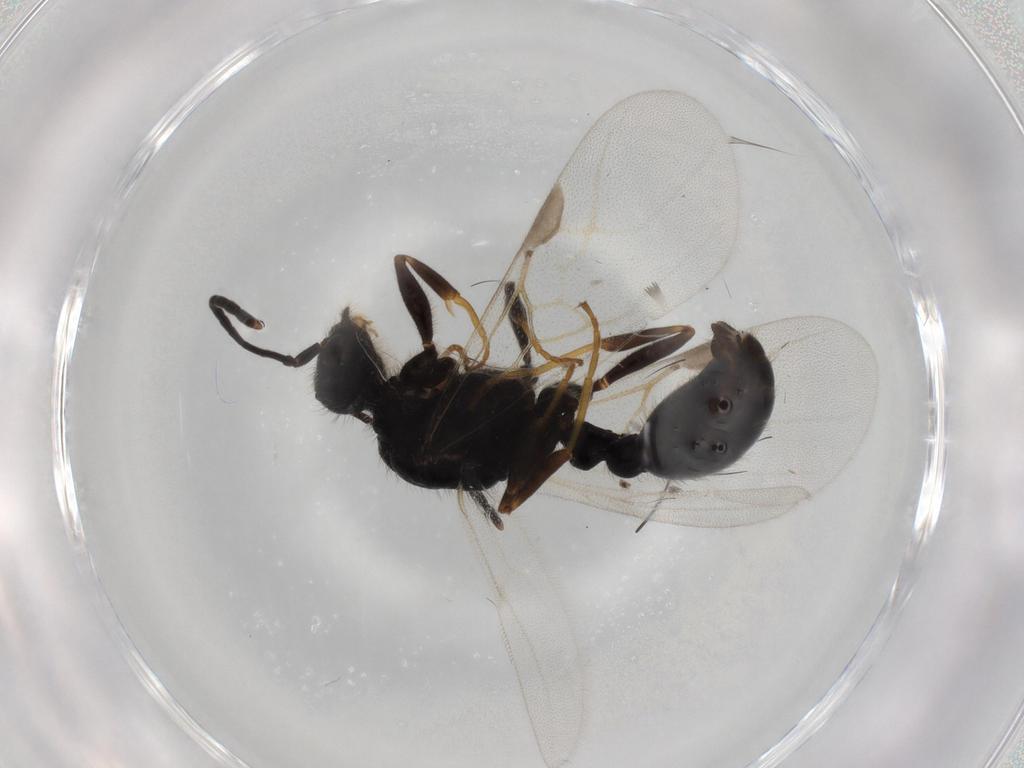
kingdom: Animalia
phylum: Arthropoda
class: Insecta
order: Hymenoptera
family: Formicidae
